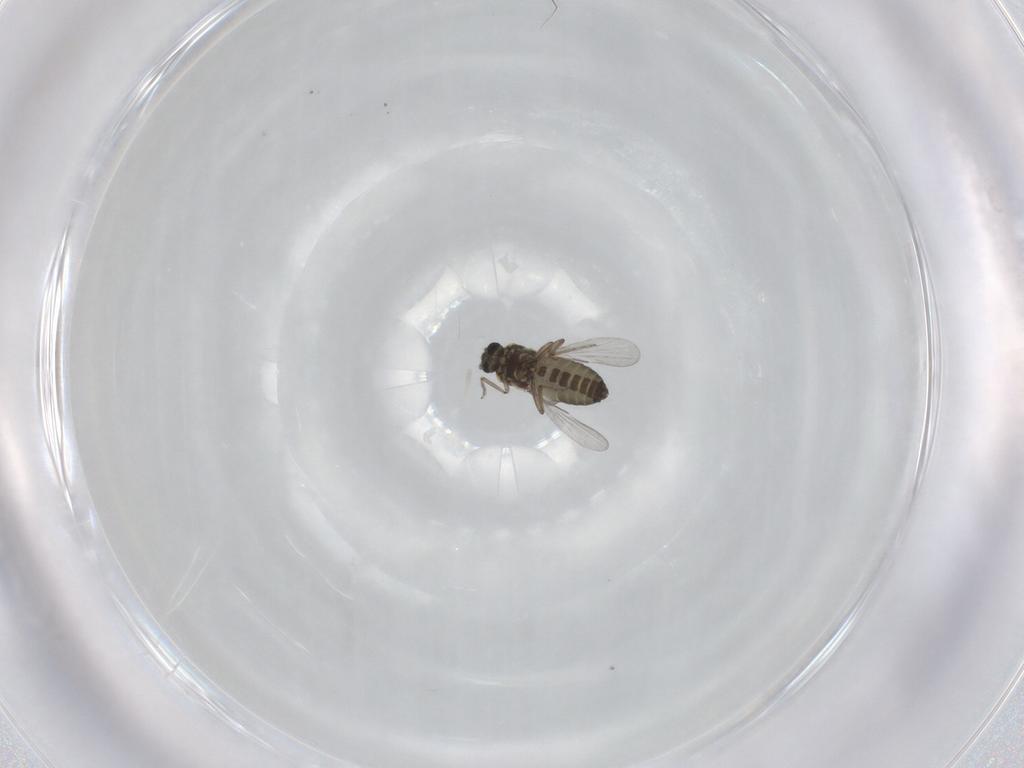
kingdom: Animalia
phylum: Arthropoda
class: Insecta
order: Diptera
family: Ceratopogonidae
